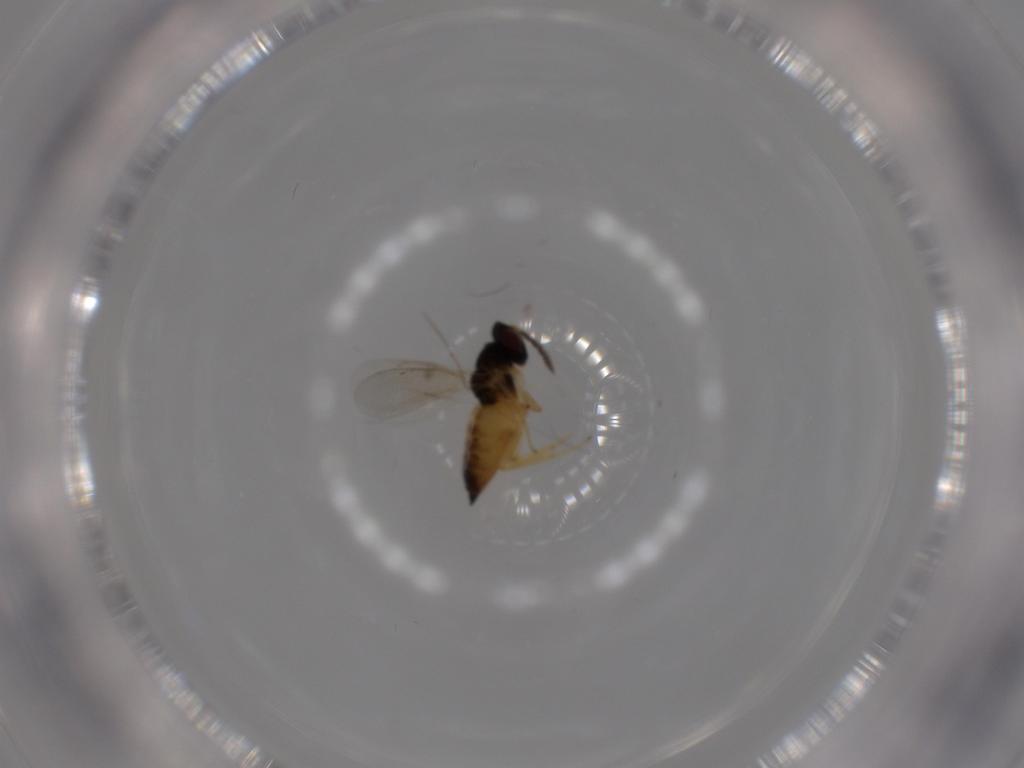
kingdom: Animalia
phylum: Arthropoda
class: Insecta
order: Hymenoptera
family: Eulophidae
